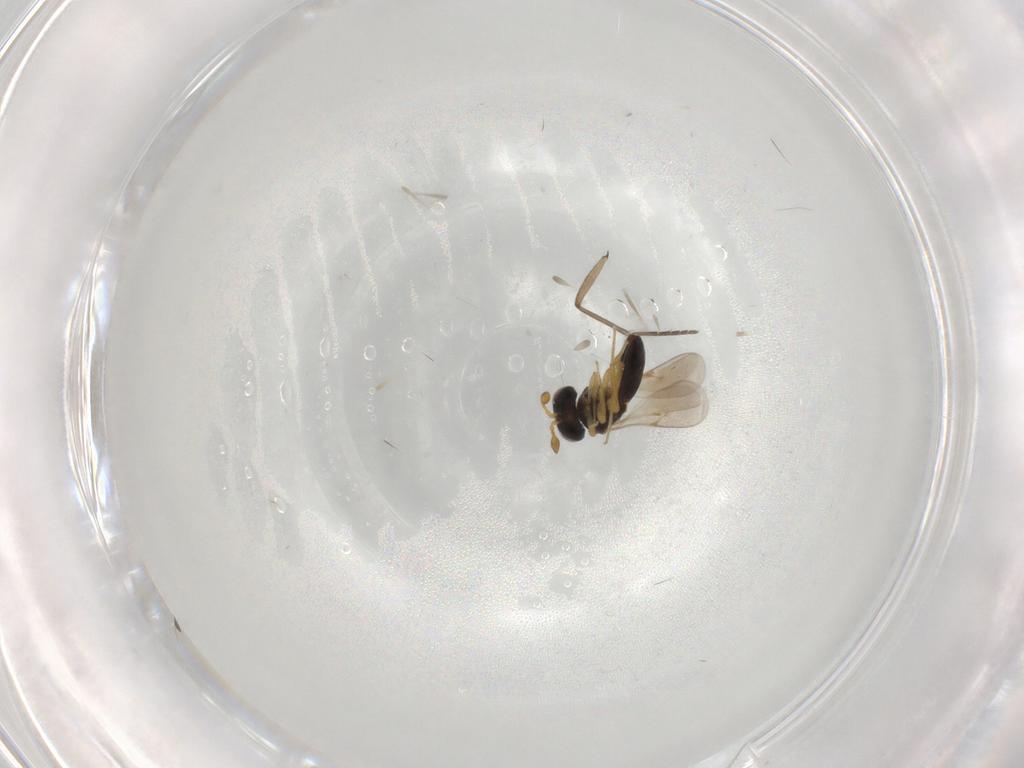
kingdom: Animalia
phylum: Arthropoda
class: Insecta
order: Hymenoptera
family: Scelionidae
